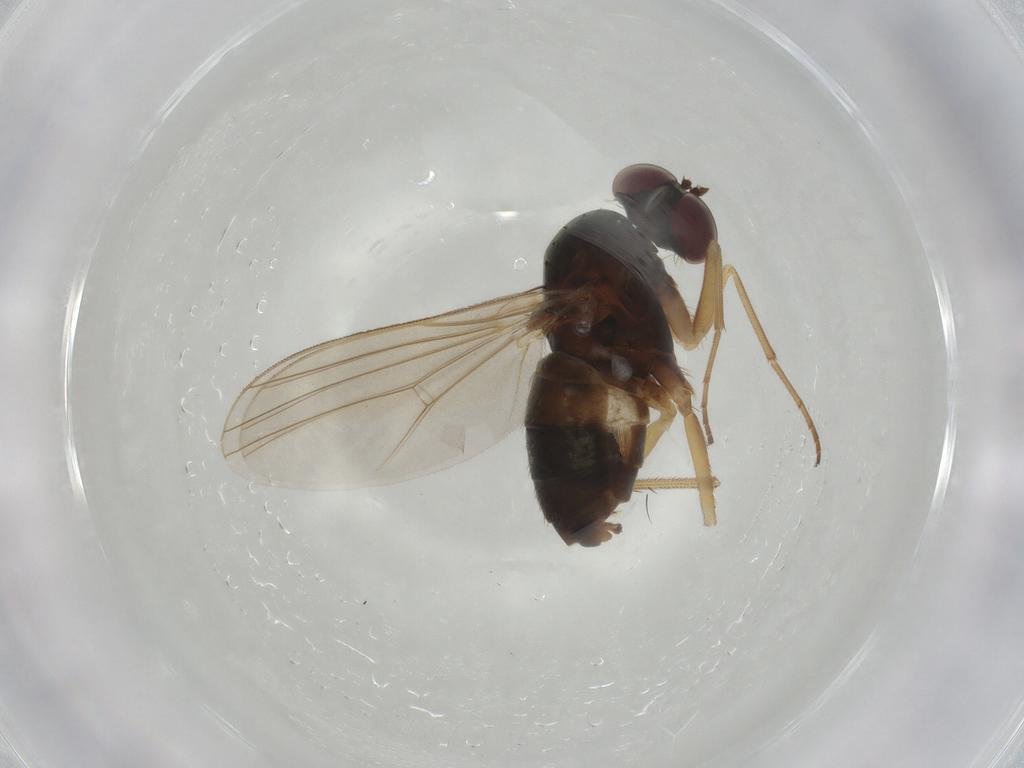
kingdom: Animalia
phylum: Arthropoda
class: Insecta
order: Diptera
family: Dolichopodidae
